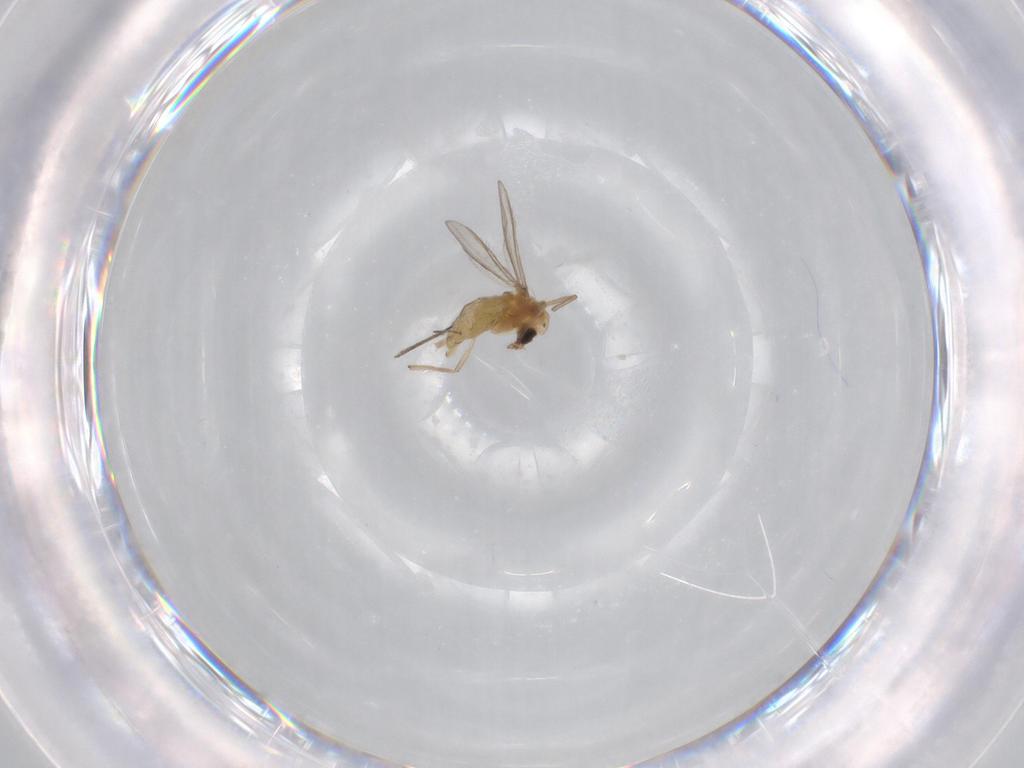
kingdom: Animalia
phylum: Arthropoda
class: Insecta
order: Diptera
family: Chironomidae
